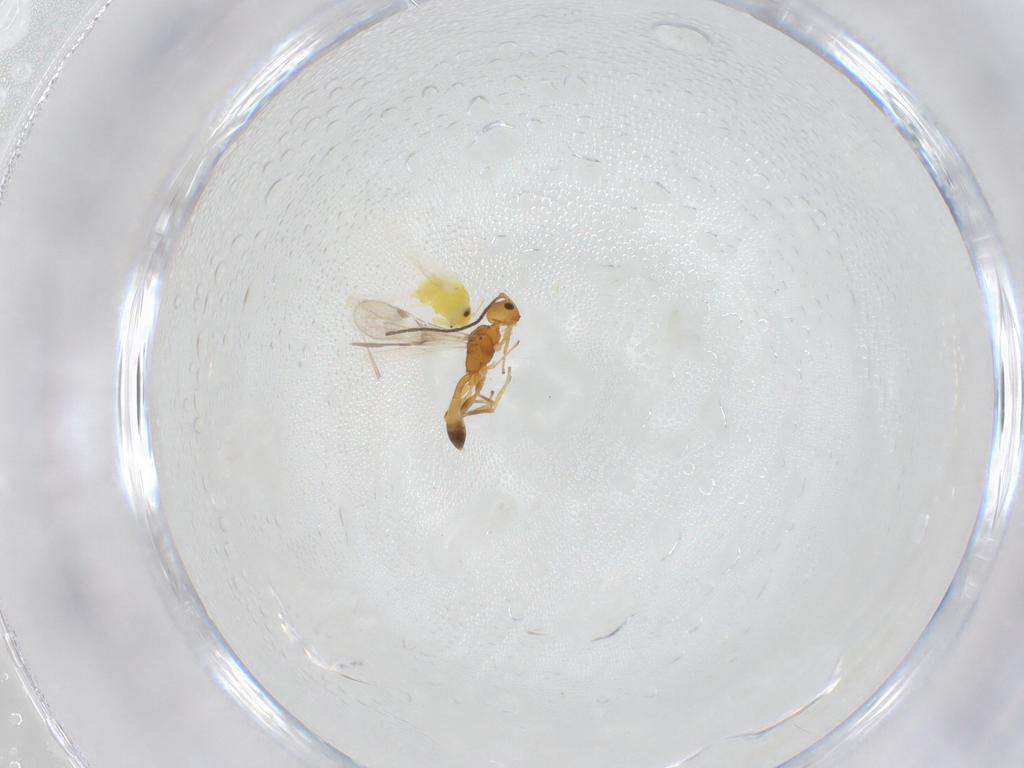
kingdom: Animalia
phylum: Arthropoda
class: Insecta
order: Hemiptera
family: Aleyrodidae
